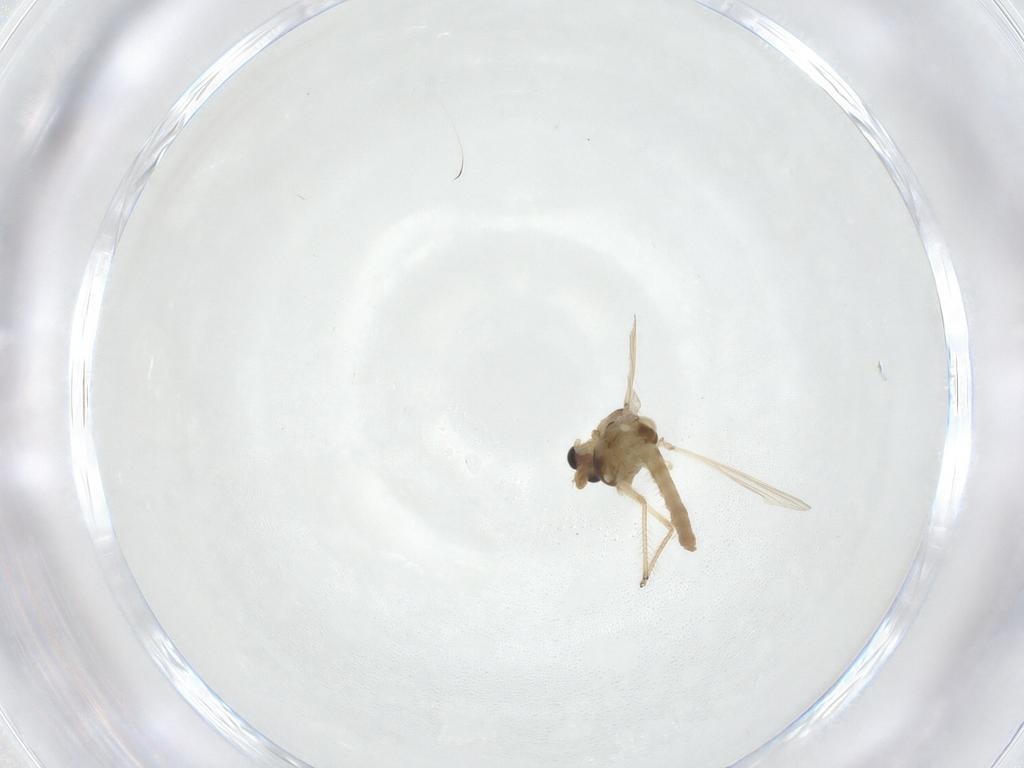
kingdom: Animalia
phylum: Arthropoda
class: Insecta
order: Diptera
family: Chironomidae
